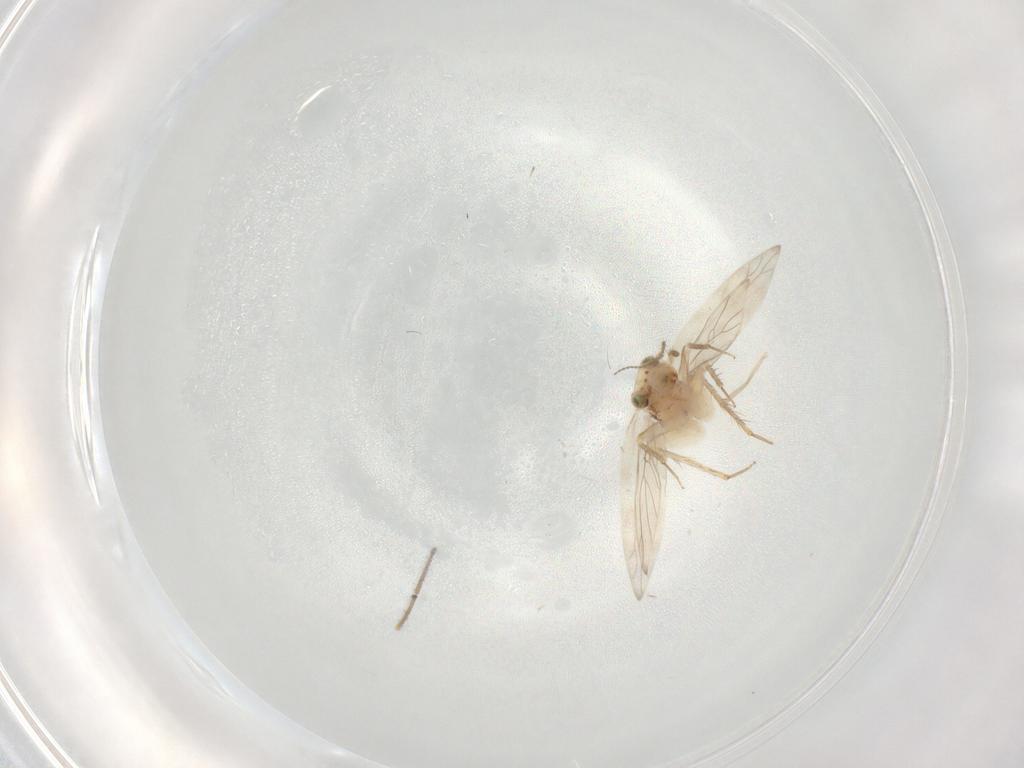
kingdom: Animalia
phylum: Arthropoda
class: Insecta
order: Psocodea
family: Lepidopsocidae
